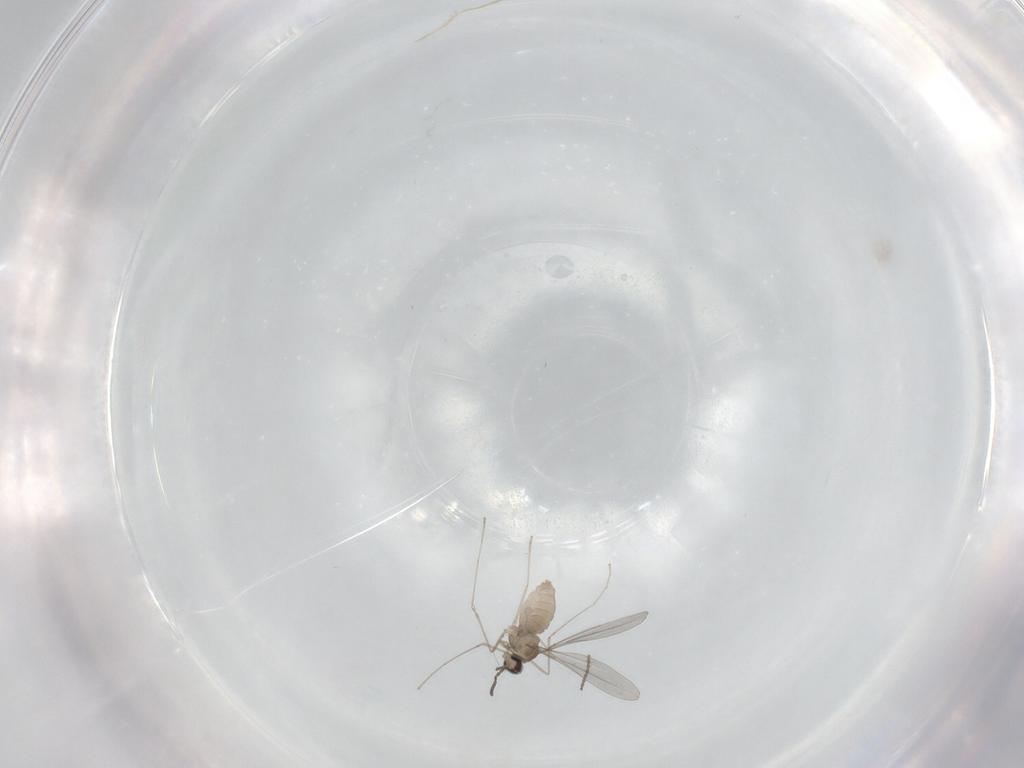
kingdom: Animalia
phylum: Arthropoda
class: Insecta
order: Diptera
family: Cecidomyiidae
